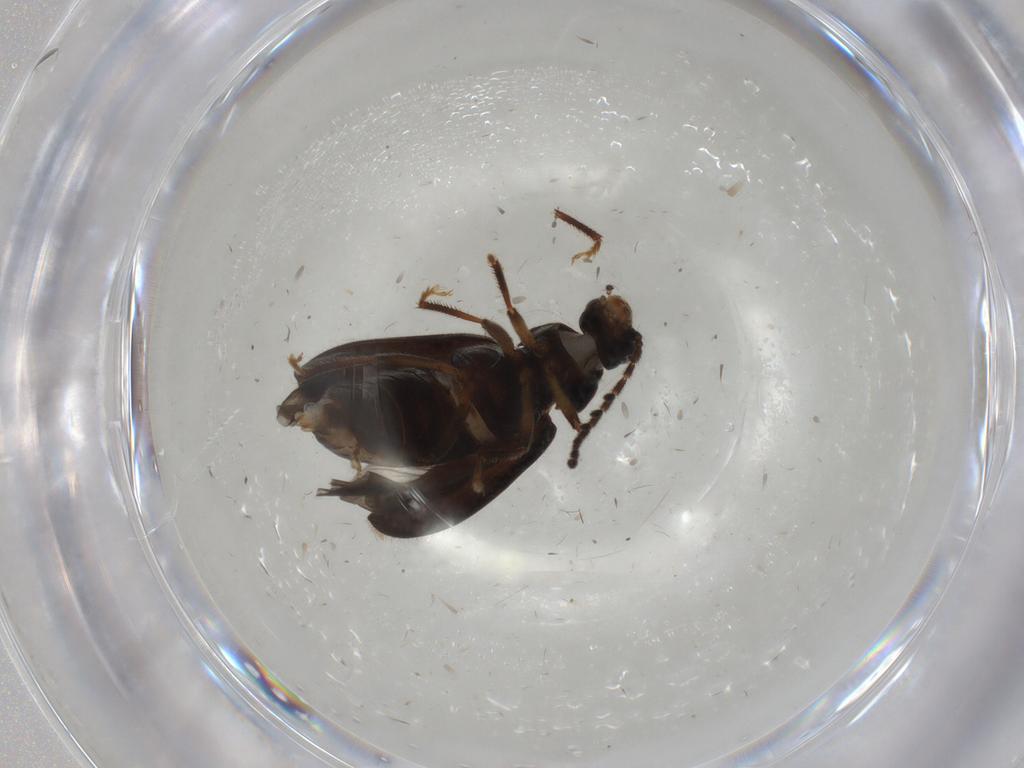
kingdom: Animalia
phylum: Arthropoda
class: Insecta
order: Coleoptera
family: Ptilodactylidae
